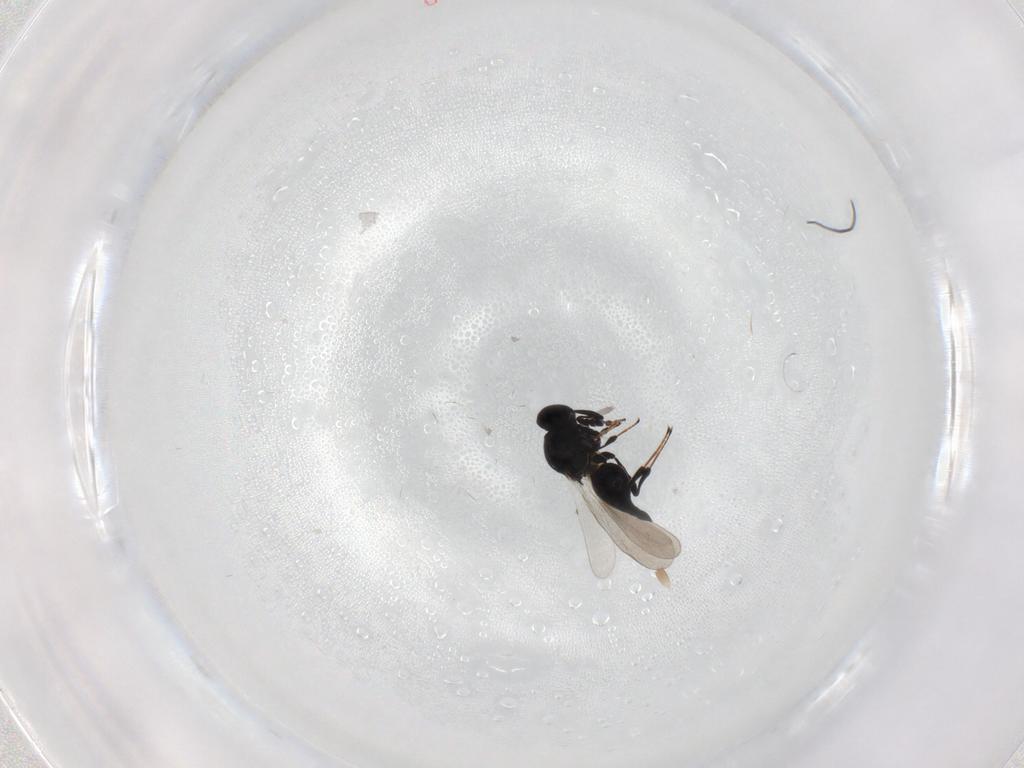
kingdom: Animalia
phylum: Arthropoda
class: Insecta
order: Hymenoptera
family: Platygastridae
